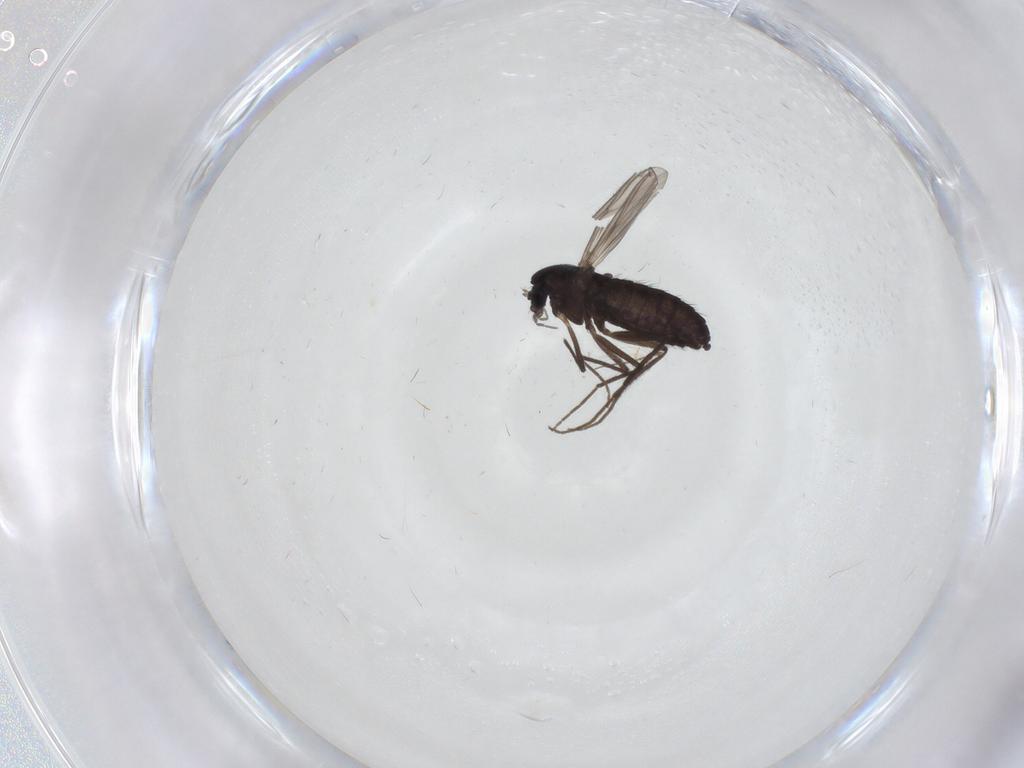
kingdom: Animalia
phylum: Arthropoda
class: Insecta
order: Diptera
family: Chironomidae
